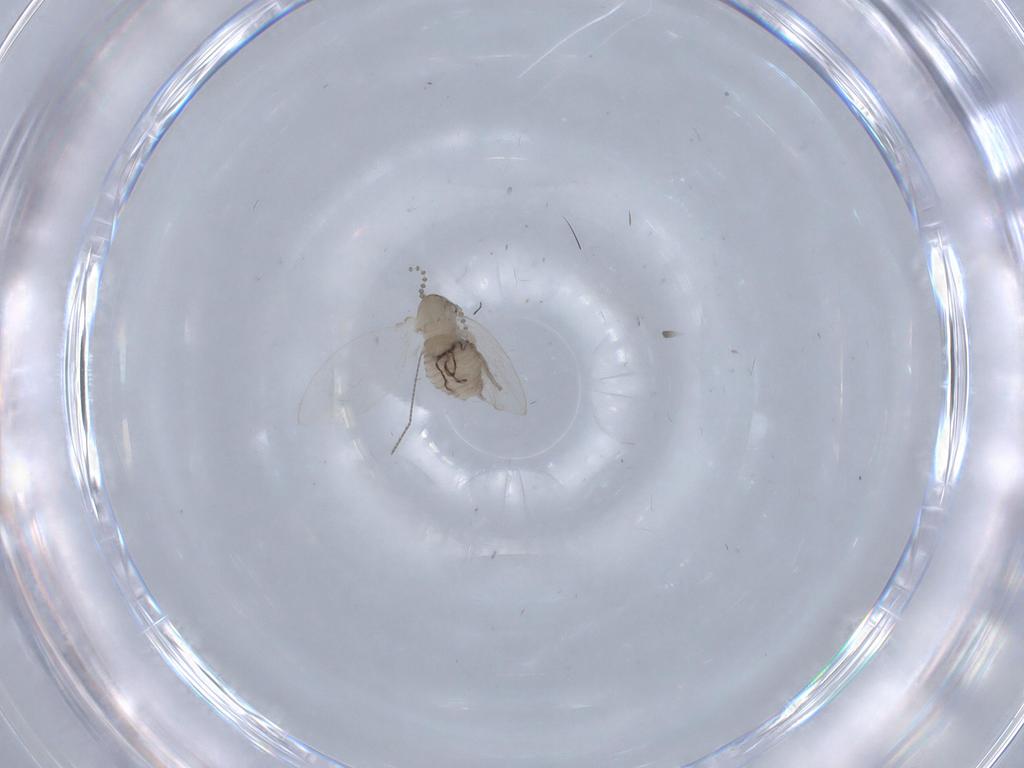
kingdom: Animalia
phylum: Arthropoda
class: Insecta
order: Diptera
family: Psychodidae
